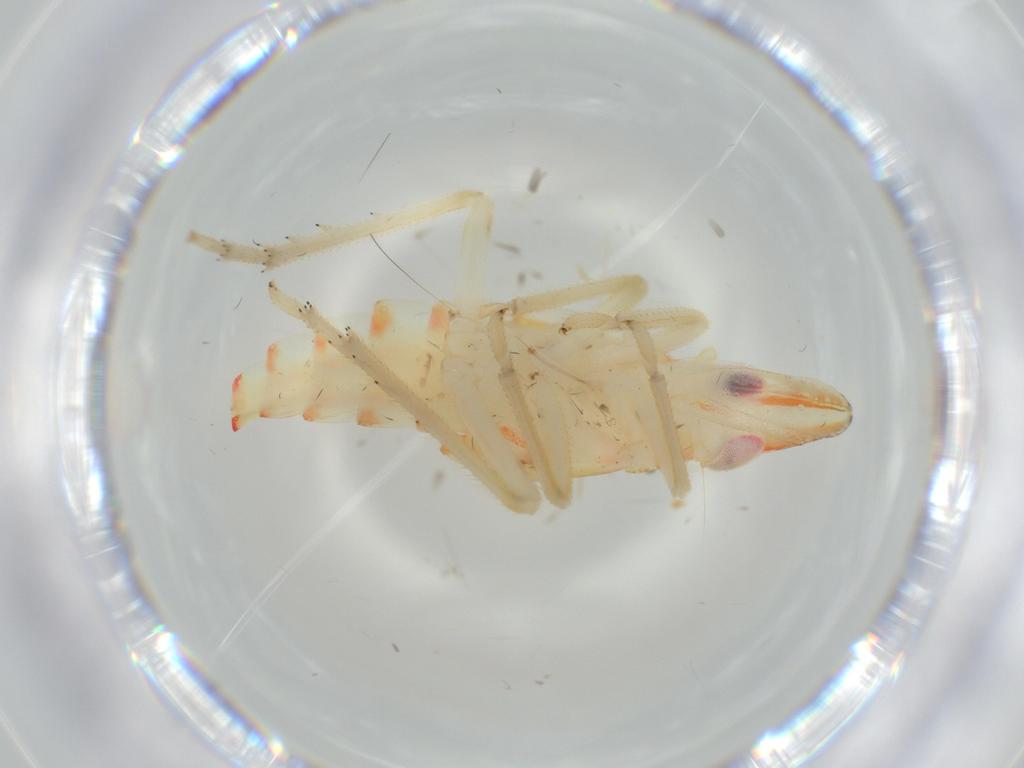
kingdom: Animalia
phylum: Arthropoda
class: Insecta
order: Hemiptera
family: Tropiduchidae
